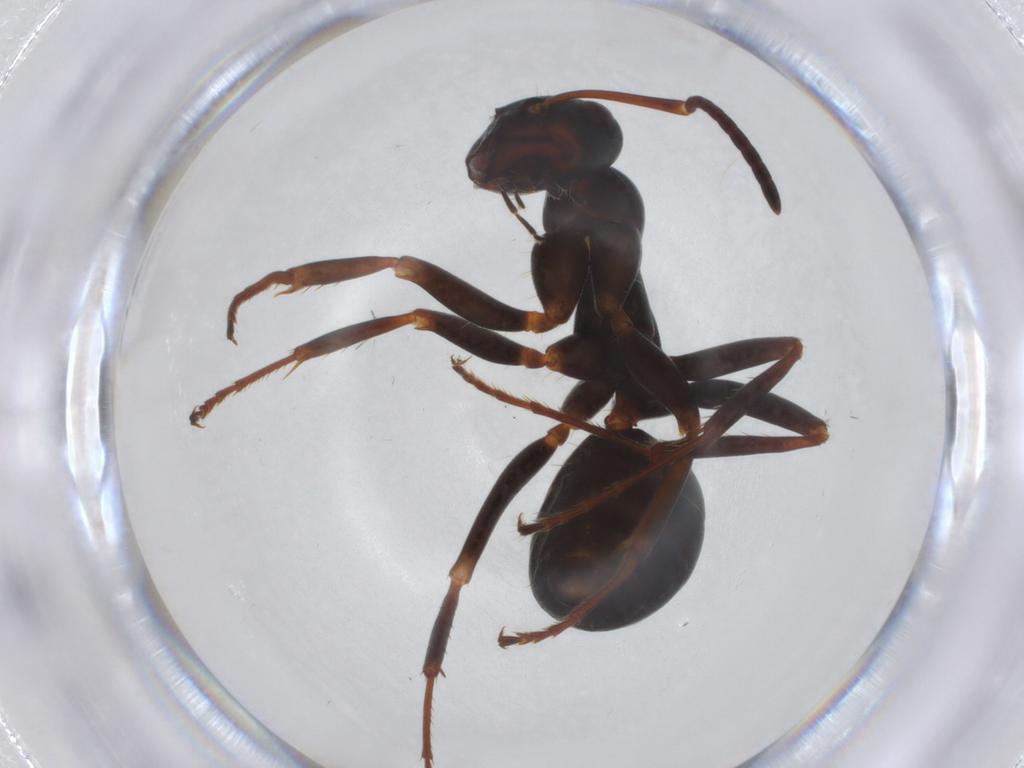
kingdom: Animalia
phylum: Arthropoda
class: Insecta
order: Hymenoptera
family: Formicidae
